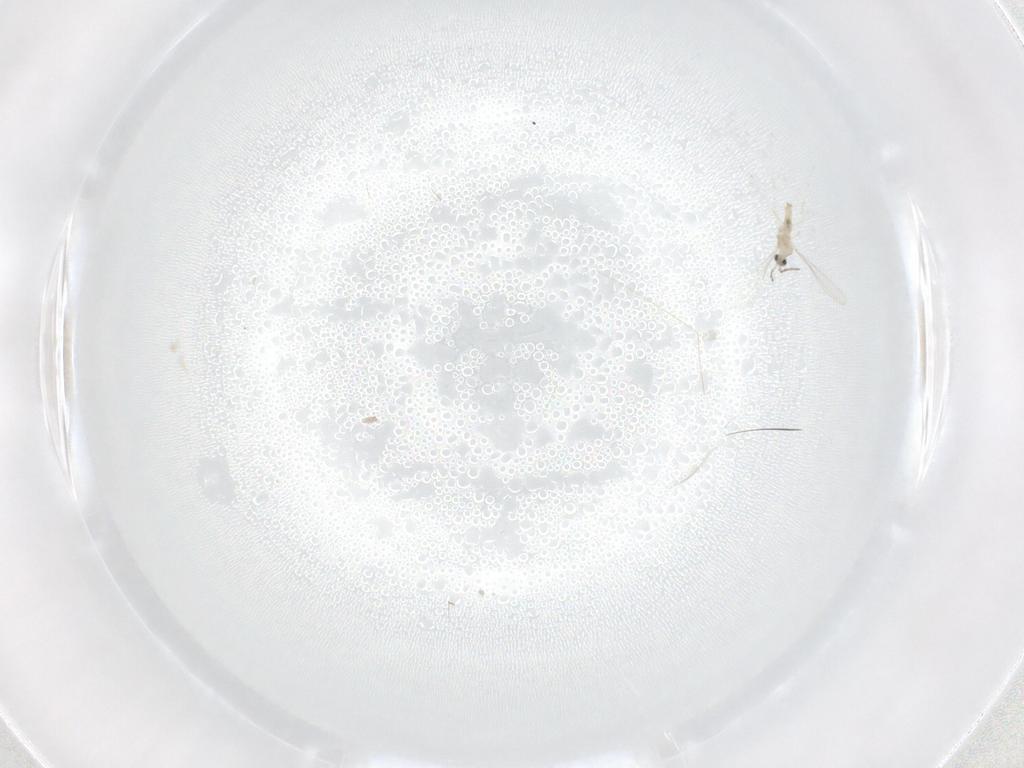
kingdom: Animalia
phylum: Arthropoda
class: Insecta
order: Diptera
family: Cecidomyiidae
